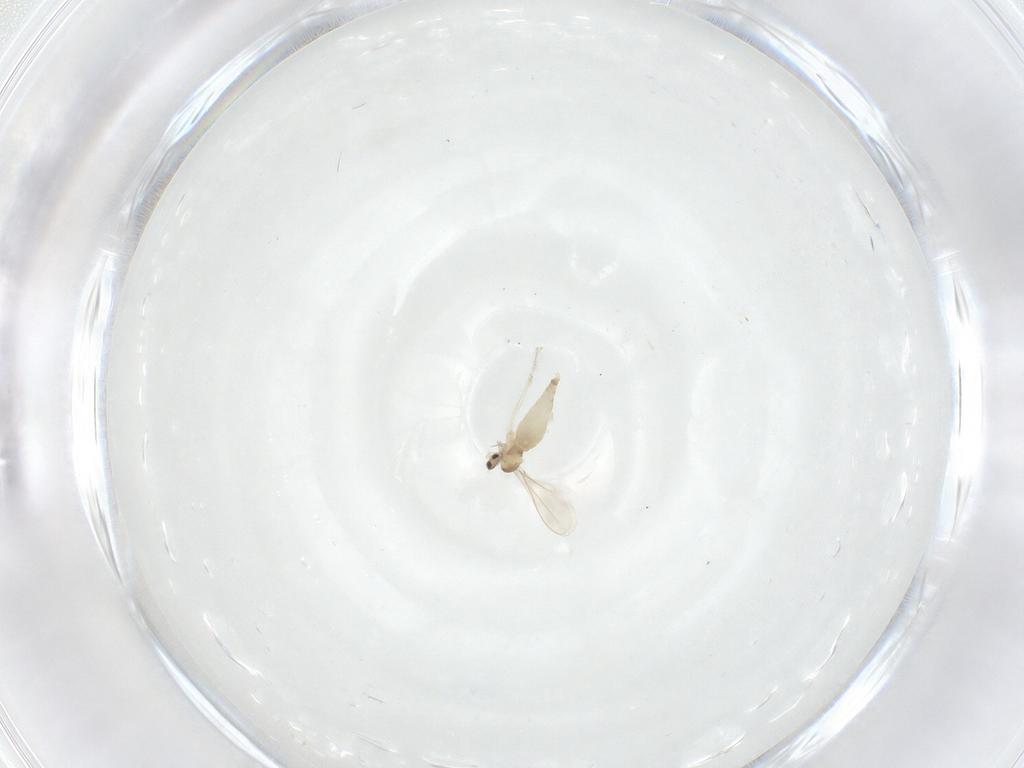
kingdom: Animalia
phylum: Arthropoda
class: Insecta
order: Diptera
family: Cecidomyiidae
